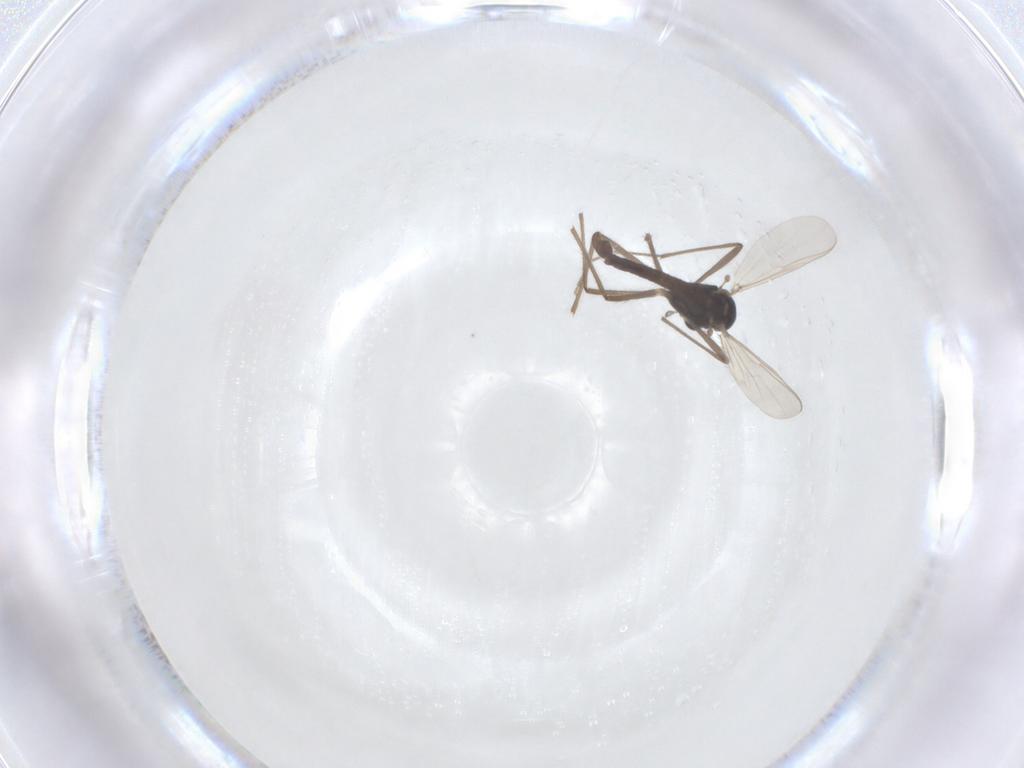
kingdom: Animalia
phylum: Arthropoda
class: Insecta
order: Diptera
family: Chironomidae
